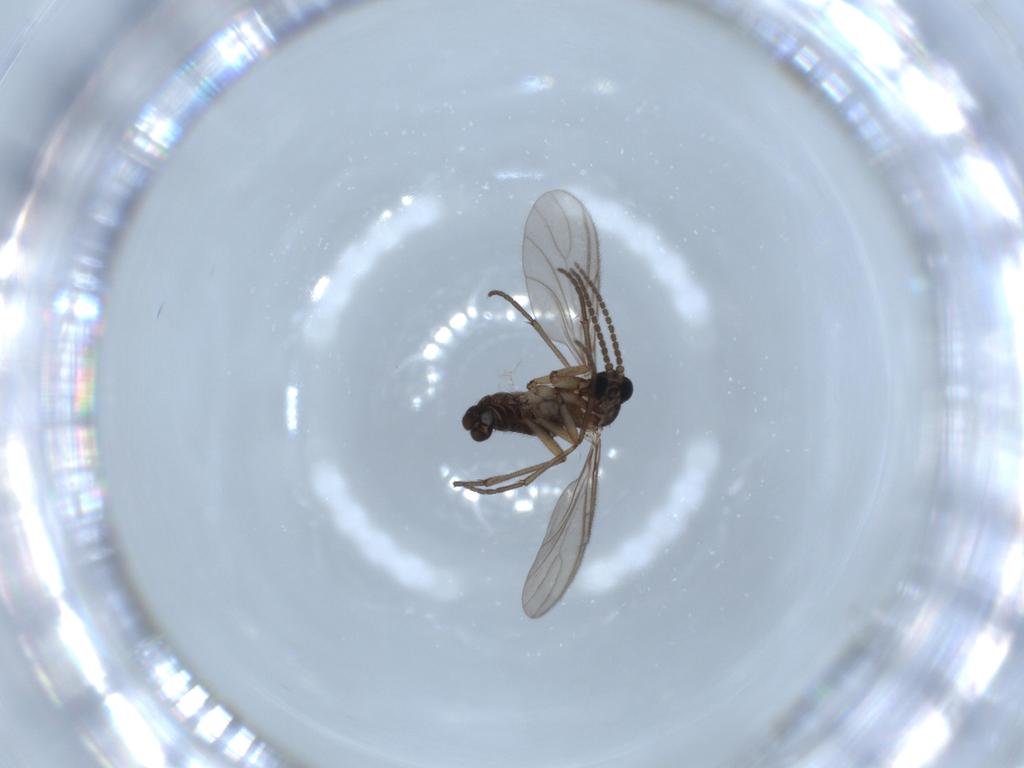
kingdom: Animalia
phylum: Arthropoda
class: Insecta
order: Diptera
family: Sciaridae
